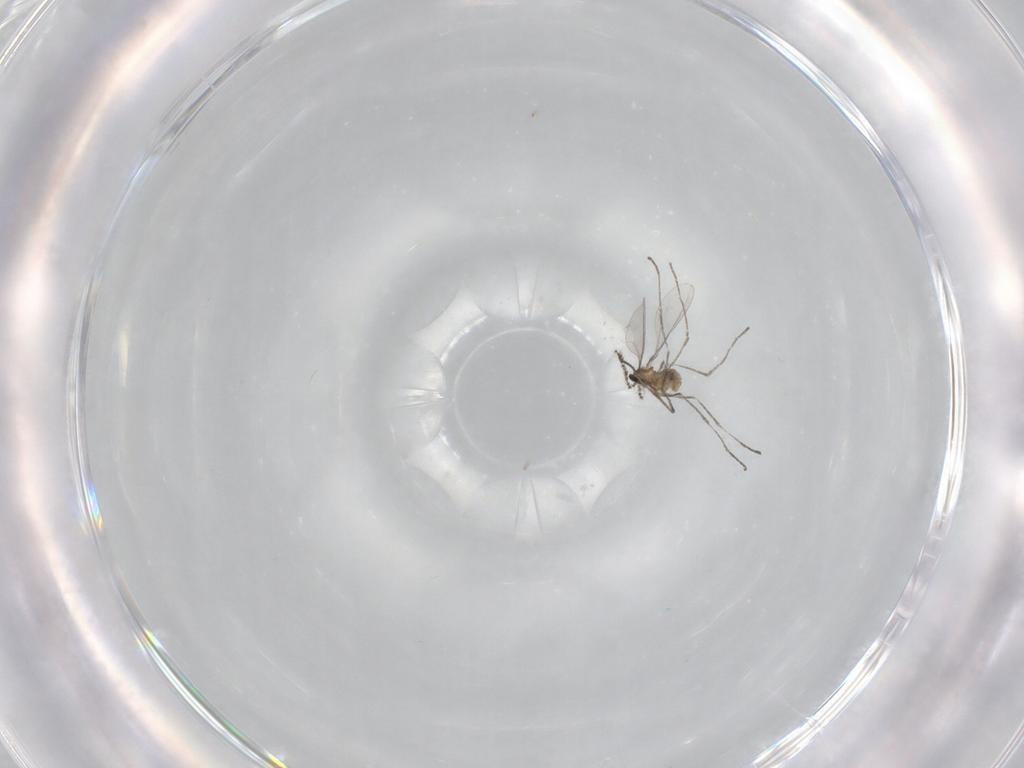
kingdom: Animalia
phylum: Arthropoda
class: Insecta
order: Diptera
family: Cecidomyiidae
